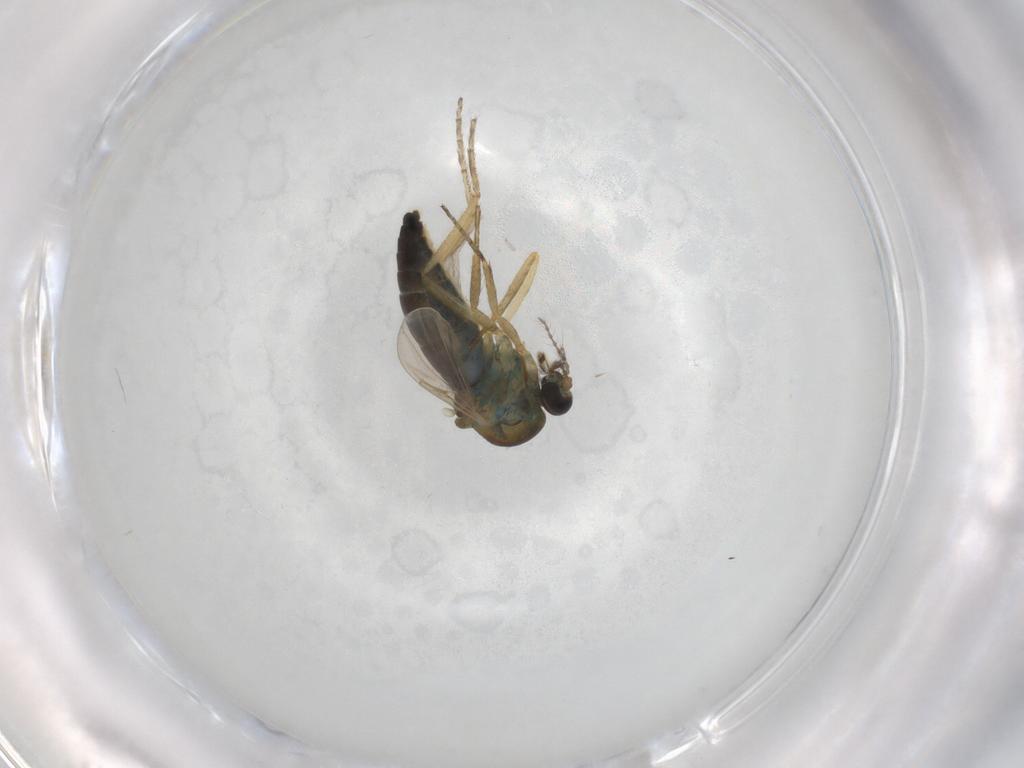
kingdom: Animalia
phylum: Arthropoda
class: Insecta
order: Diptera
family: Ceratopogonidae
